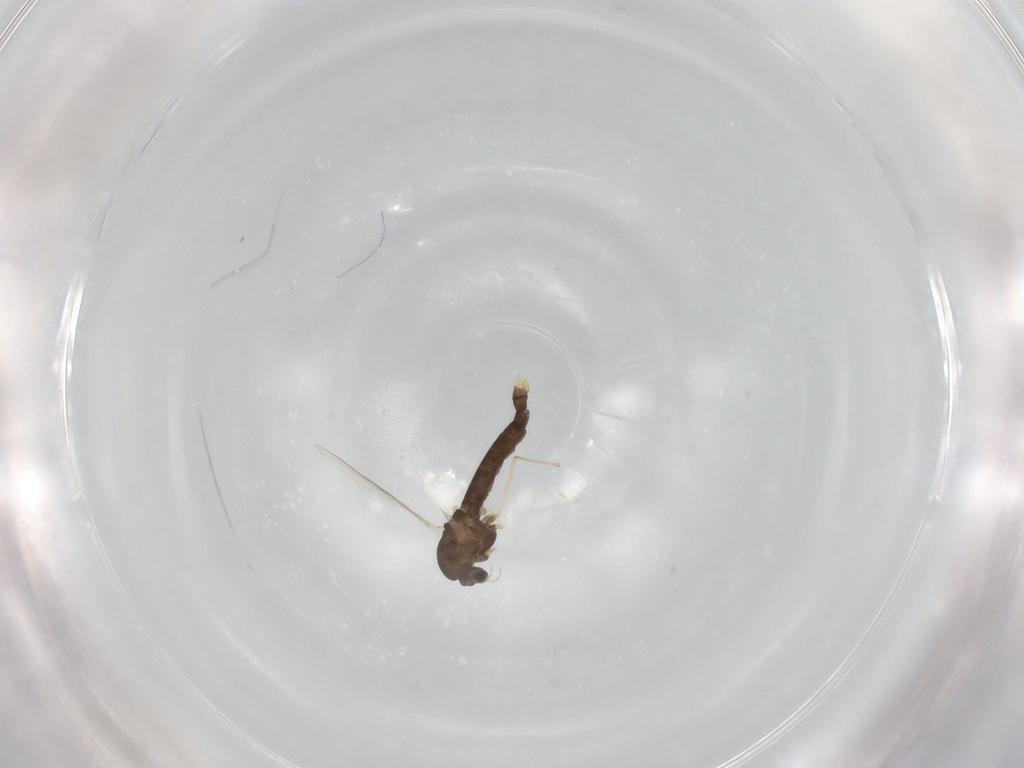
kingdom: Animalia
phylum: Arthropoda
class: Insecta
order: Diptera
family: Chironomidae
